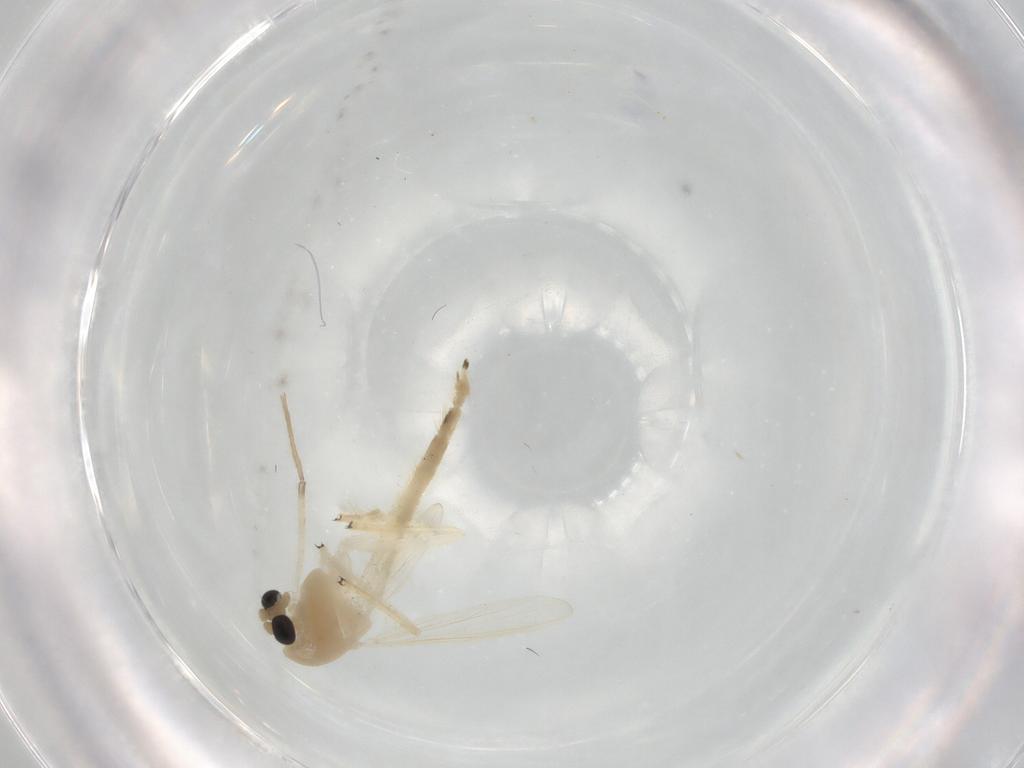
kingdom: Animalia
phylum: Arthropoda
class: Insecta
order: Diptera
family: Chironomidae
